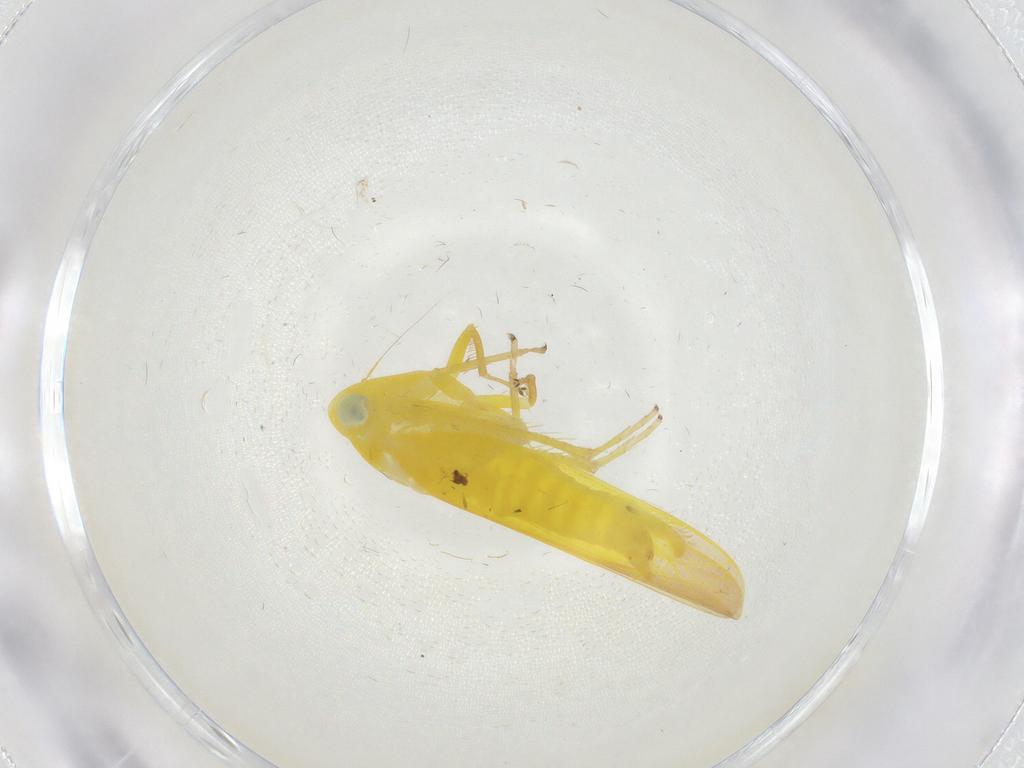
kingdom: Animalia
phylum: Arthropoda
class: Insecta
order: Hemiptera
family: Cicadellidae
